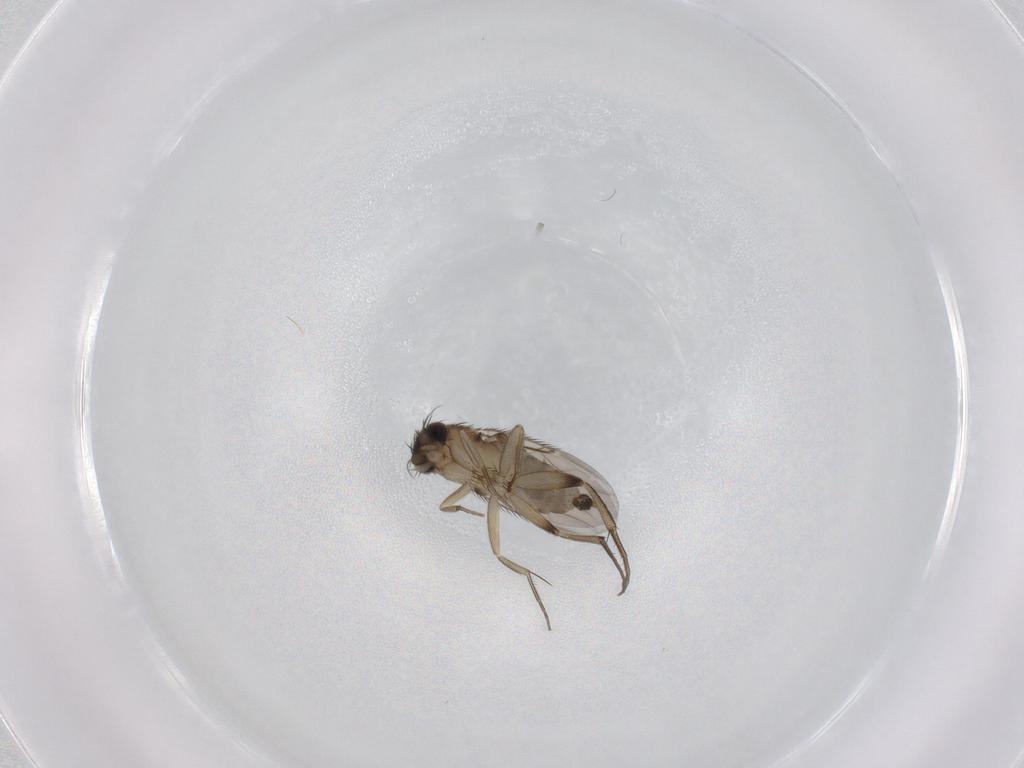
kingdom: Animalia
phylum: Arthropoda
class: Insecta
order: Diptera
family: Phoridae
